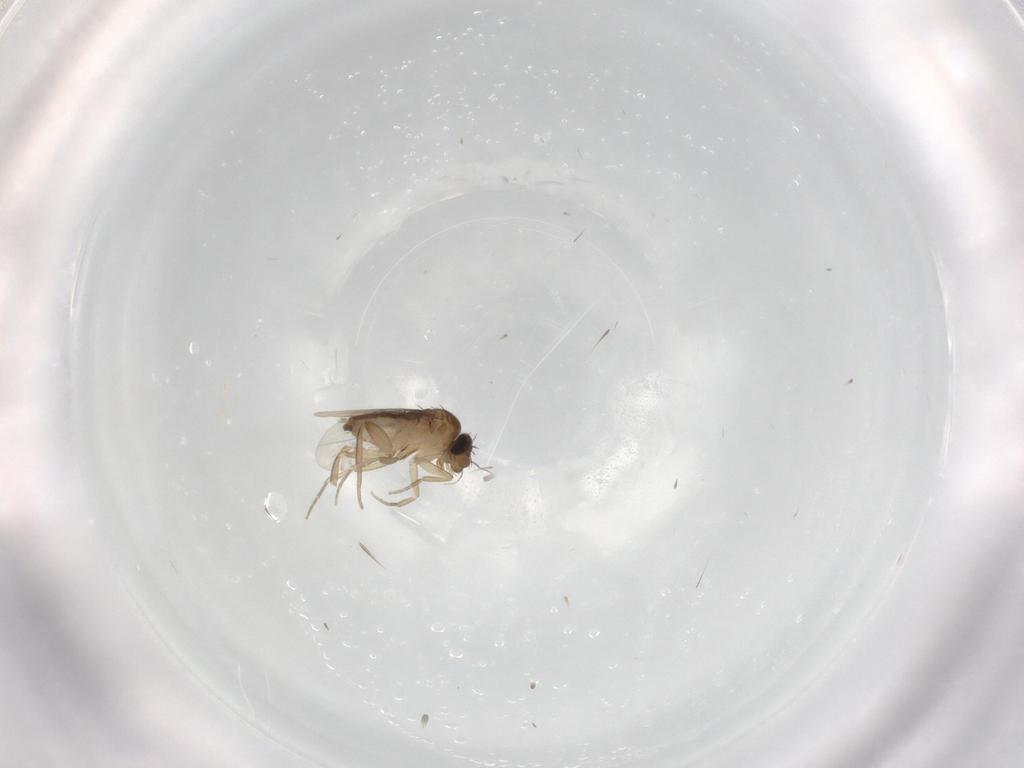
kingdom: Animalia
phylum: Arthropoda
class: Insecta
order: Diptera
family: Phoridae
